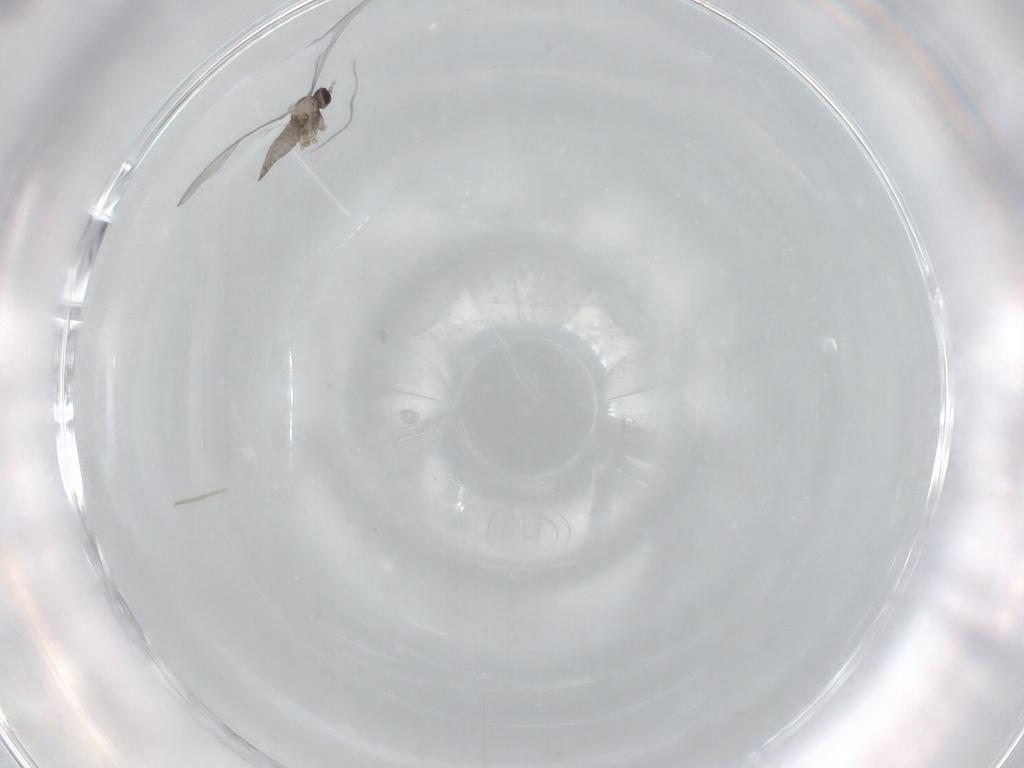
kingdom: Animalia
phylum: Arthropoda
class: Insecta
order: Diptera
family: Cecidomyiidae
